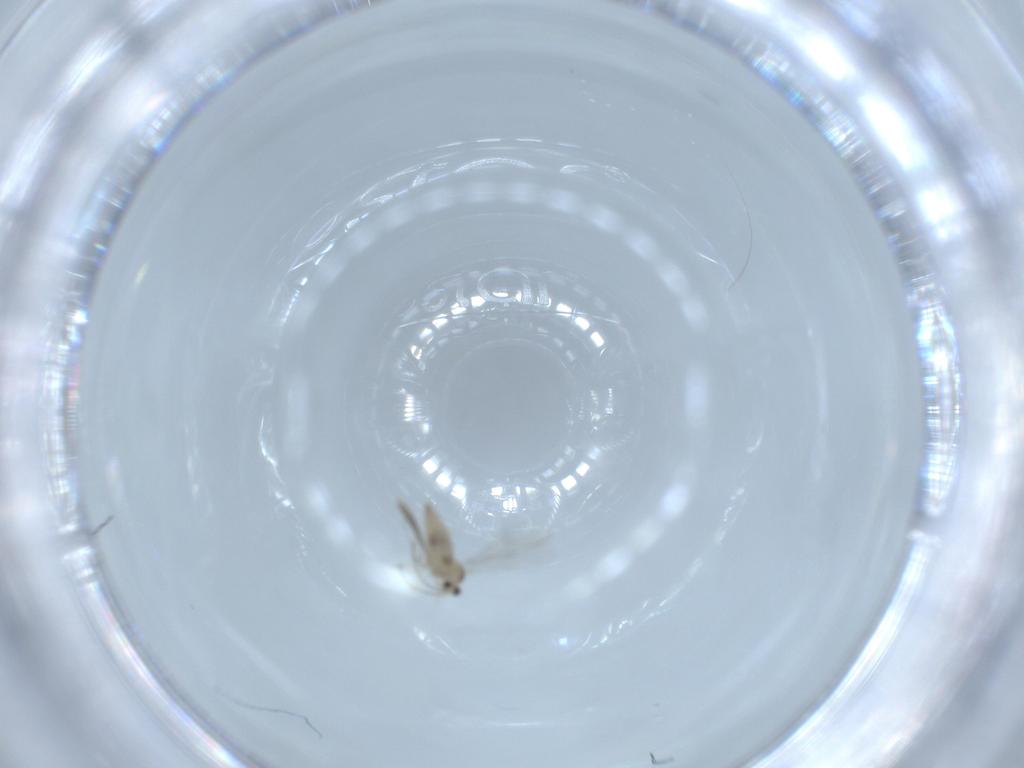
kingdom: Animalia
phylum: Arthropoda
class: Insecta
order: Diptera
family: Cecidomyiidae
